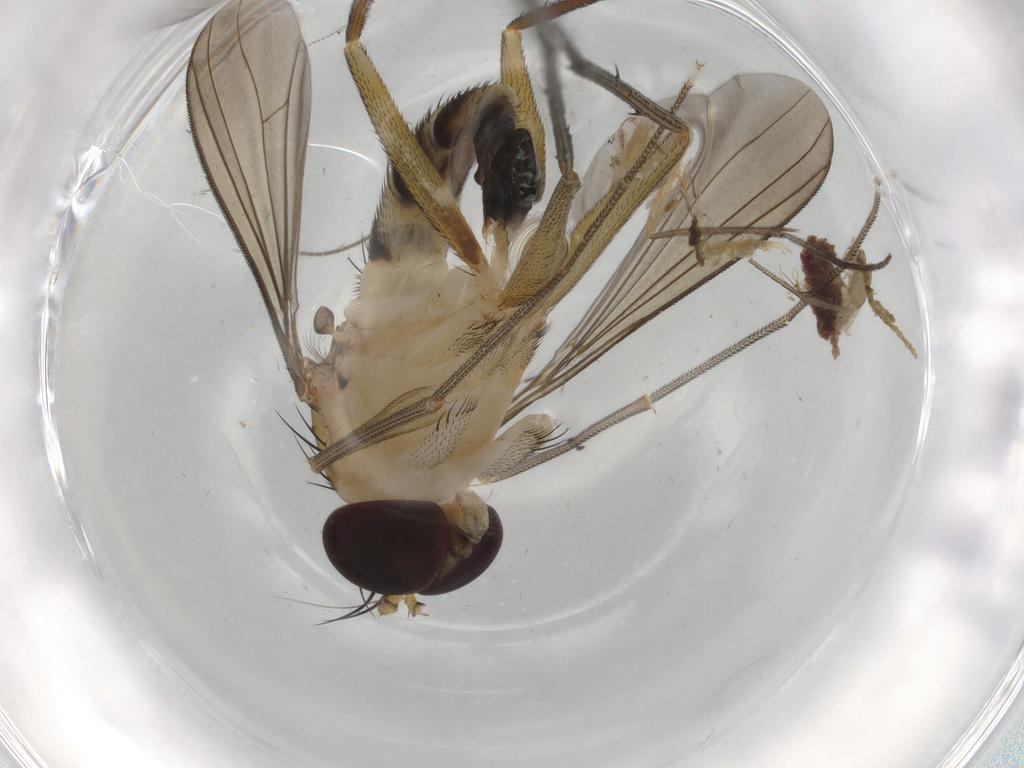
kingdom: Animalia
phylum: Arthropoda
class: Insecta
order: Diptera
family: Dolichopodidae
